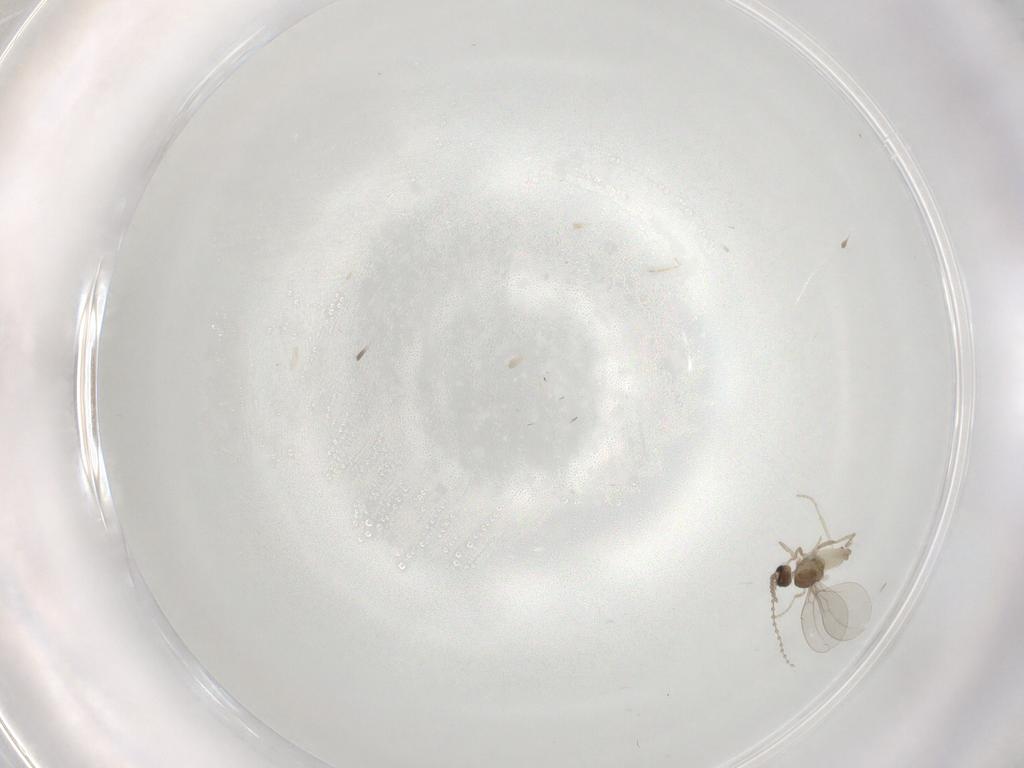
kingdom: Animalia
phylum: Arthropoda
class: Insecta
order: Diptera
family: Cecidomyiidae
